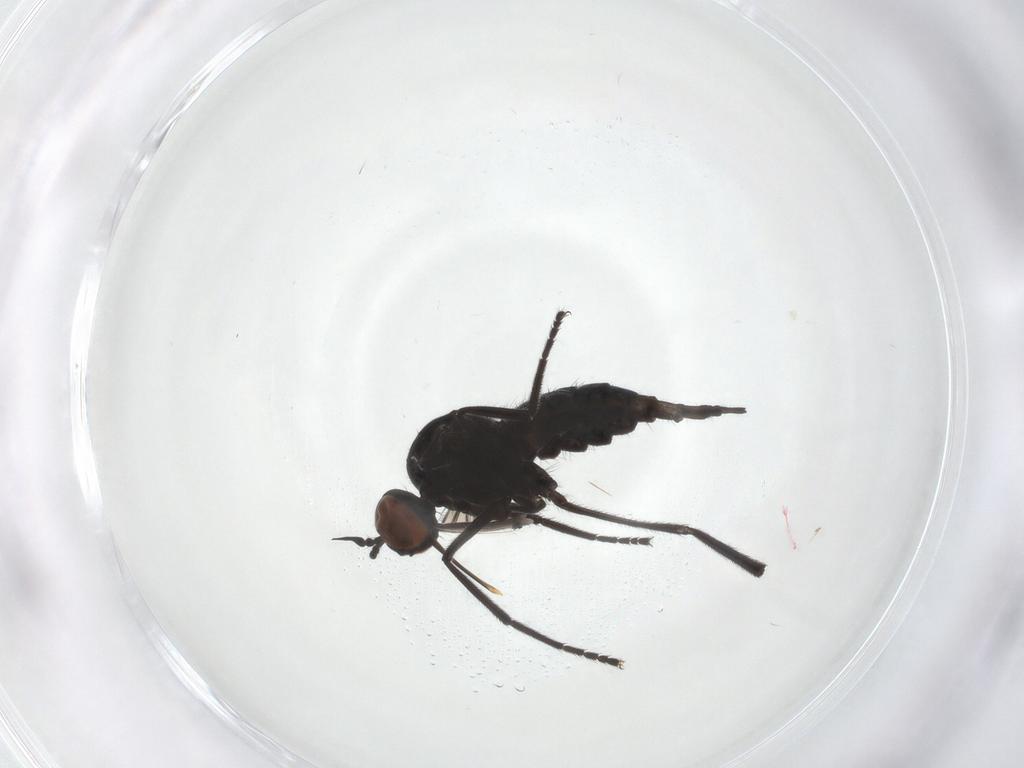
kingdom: Animalia
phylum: Arthropoda
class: Insecta
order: Diptera
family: Empididae
